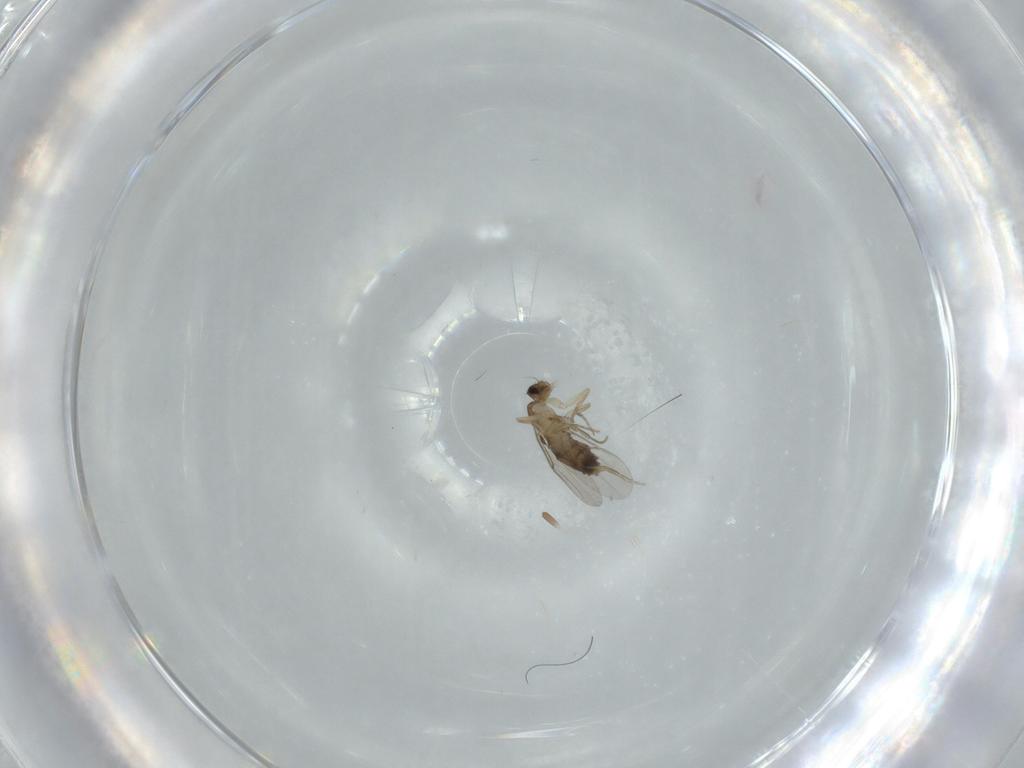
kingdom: Animalia
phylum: Arthropoda
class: Insecta
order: Diptera
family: Phoridae
